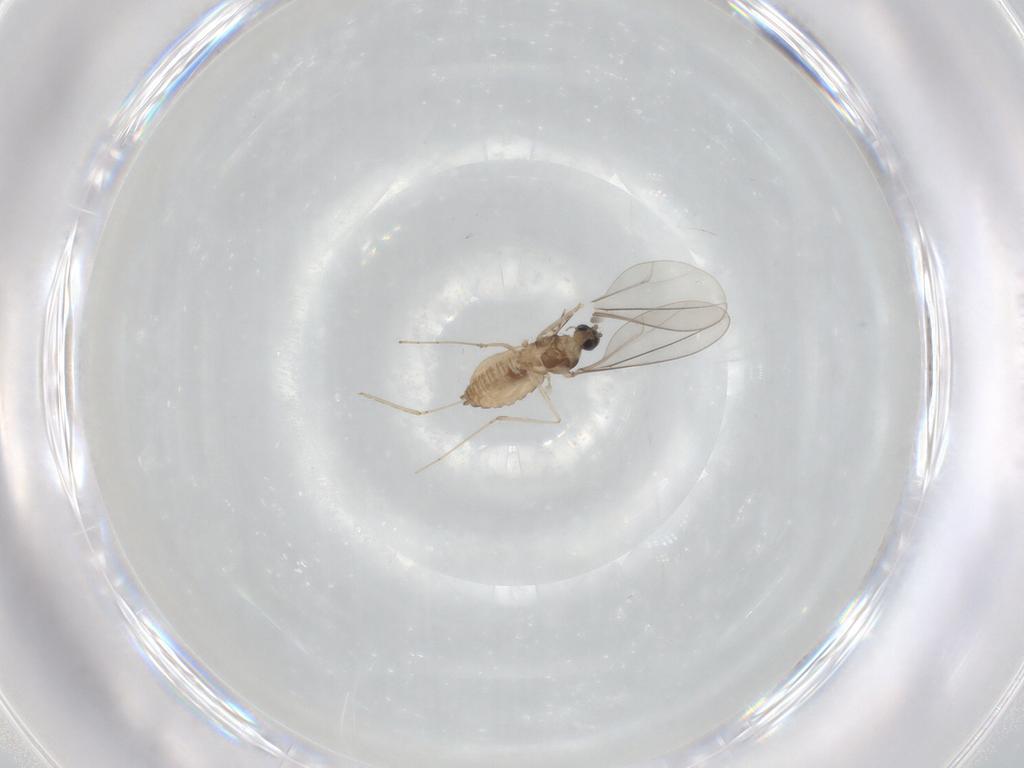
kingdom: Animalia
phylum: Arthropoda
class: Insecta
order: Diptera
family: Cecidomyiidae
